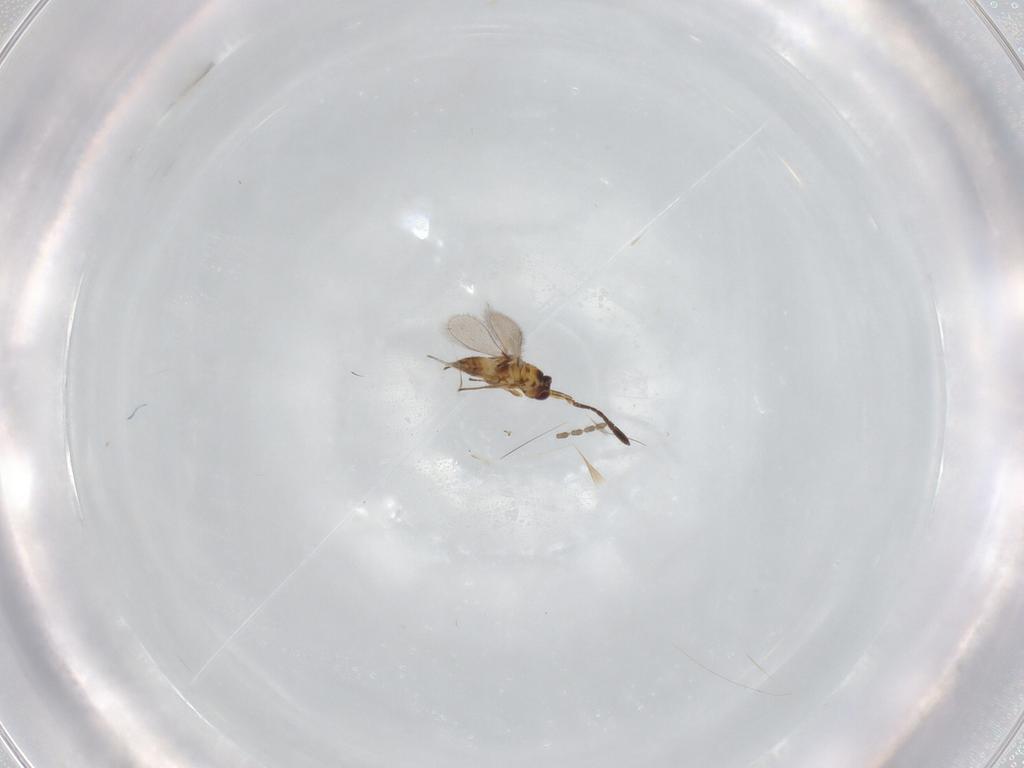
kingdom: Animalia
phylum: Arthropoda
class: Insecta
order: Hymenoptera
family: Mymaridae
